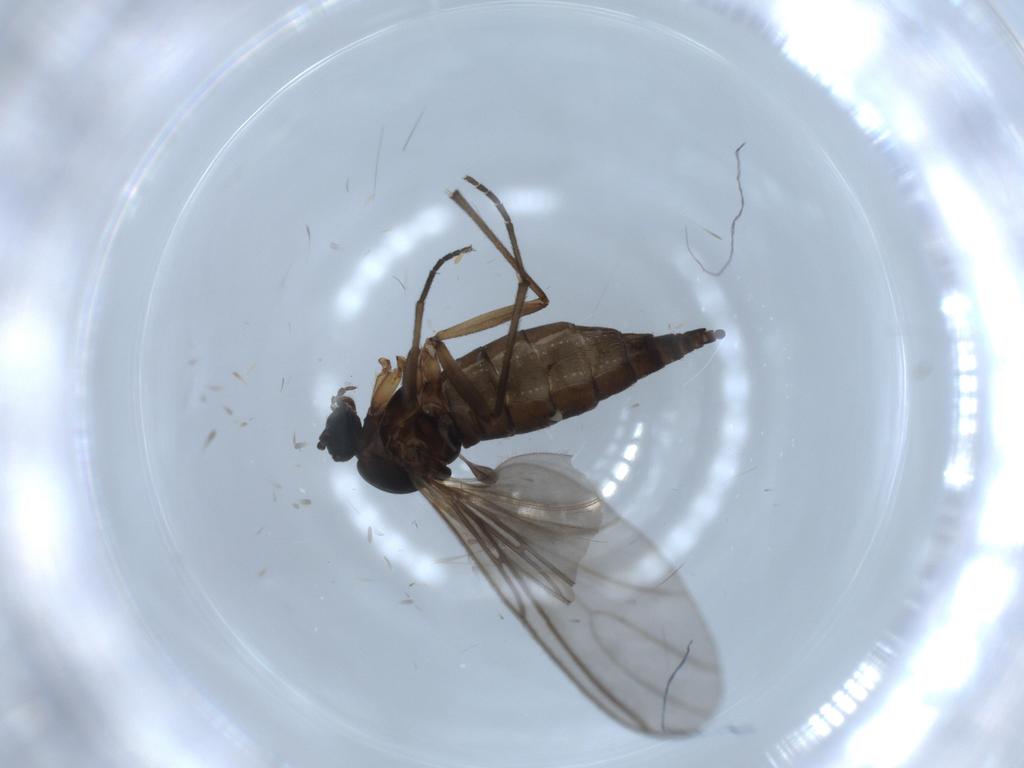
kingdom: Animalia
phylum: Arthropoda
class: Insecta
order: Diptera
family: Sciaridae
